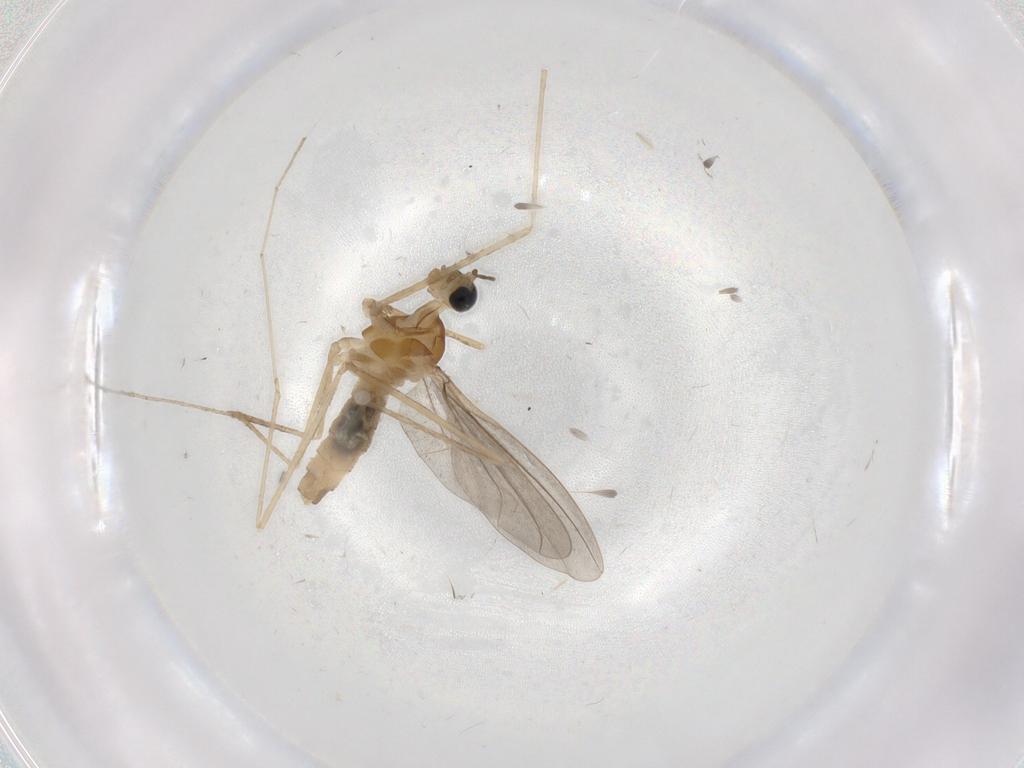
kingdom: Animalia
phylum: Arthropoda
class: Insecta
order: Diptera
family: Cecidomyiidae
